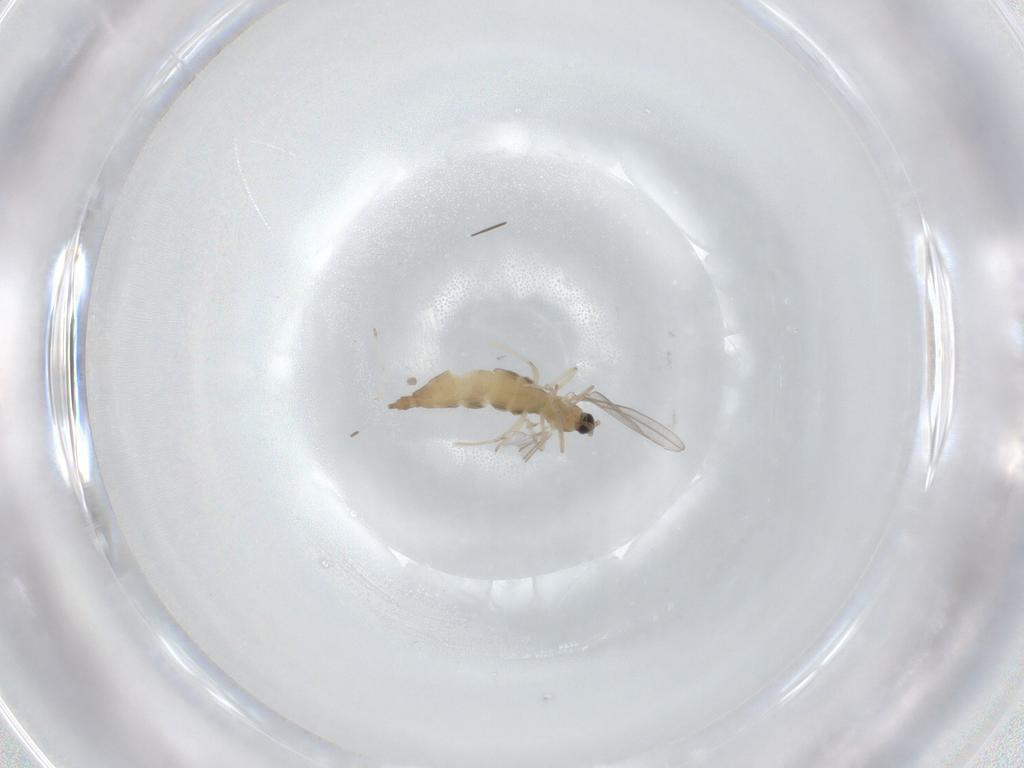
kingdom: Animalia
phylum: Arthropoda
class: Insecta
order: Diptera
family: Cecidomyiidae
